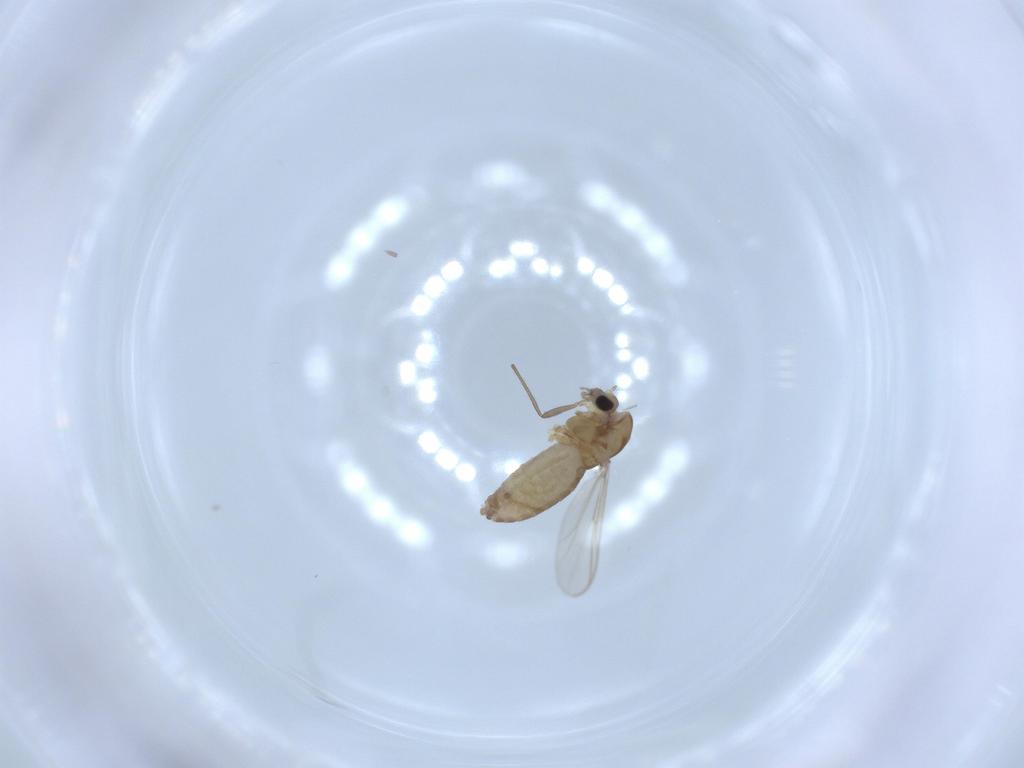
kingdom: Animalia
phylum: Arthropoda
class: Insecta
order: Diptera
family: Chironomidae
